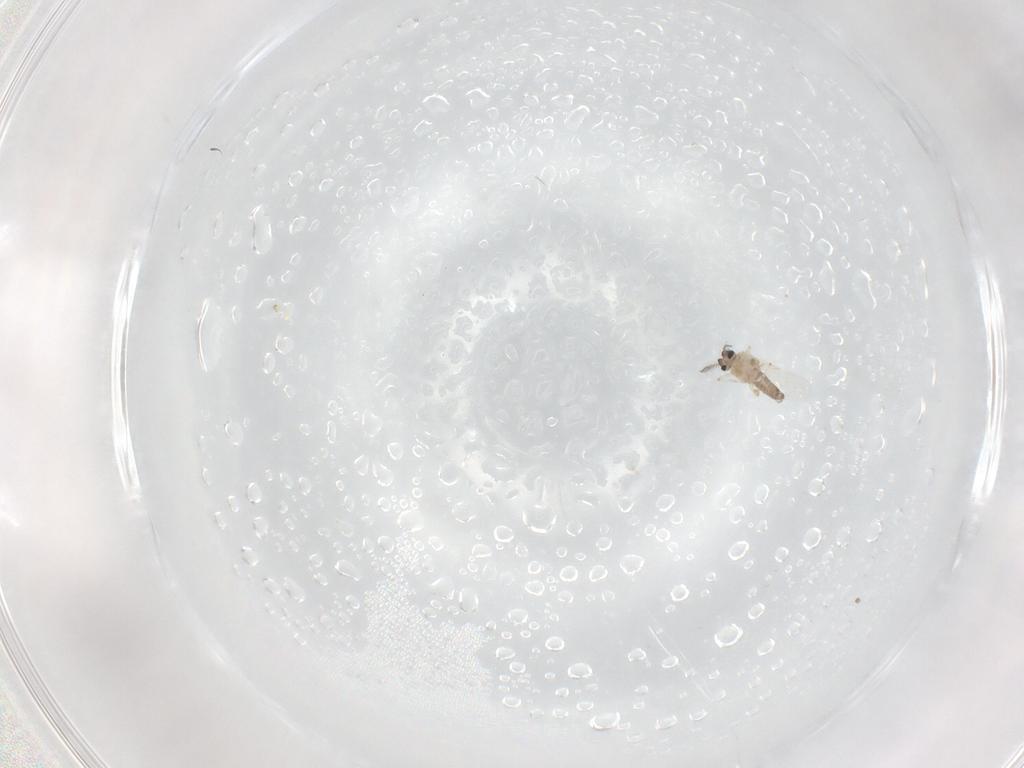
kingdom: Animalia
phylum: Arthropoda
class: Insecta
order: Diptera
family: Ceratopogonidae
